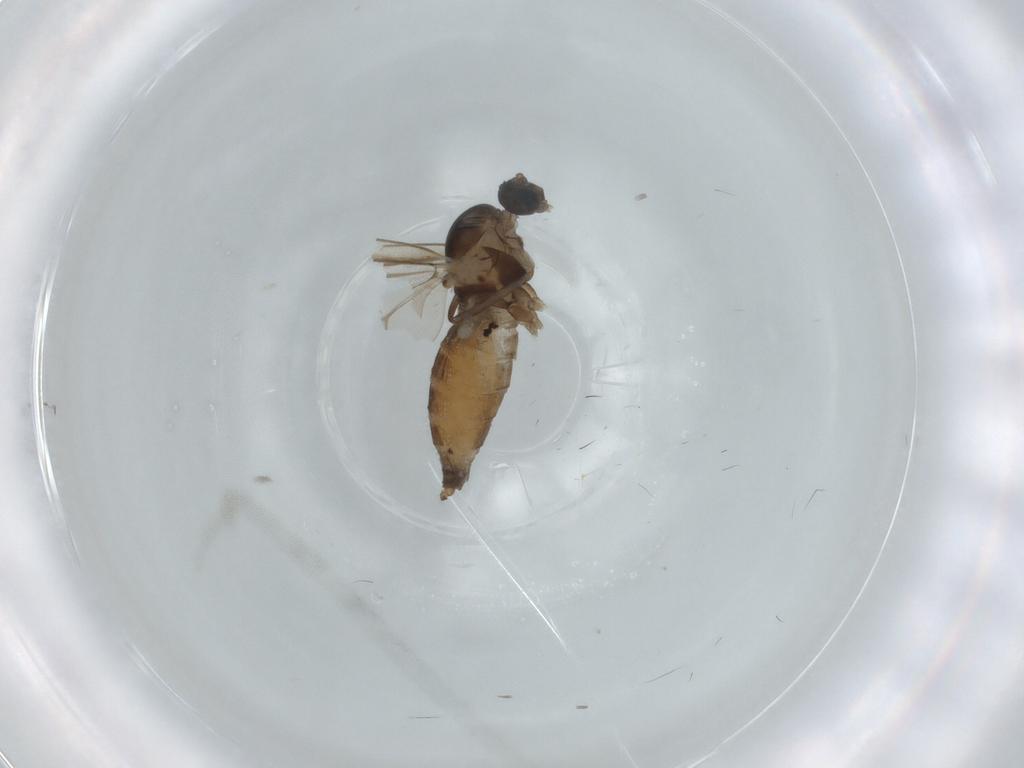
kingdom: Animalia
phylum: Arthropoda
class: Insecta
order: Diptera
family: Cecidomyiidae
